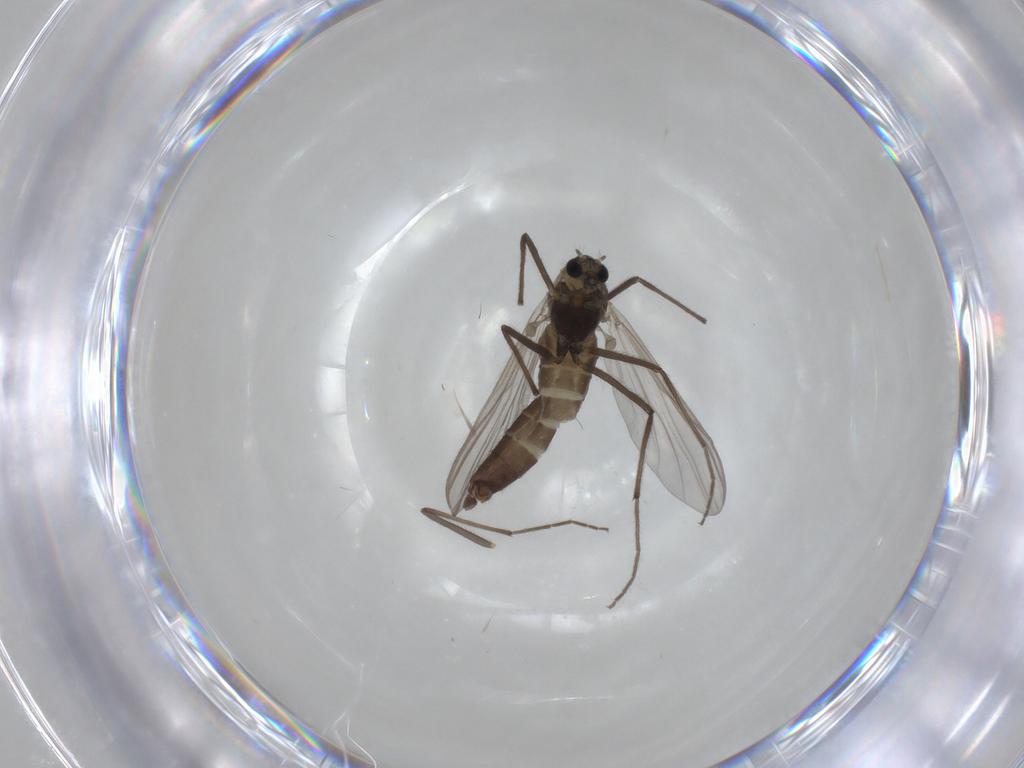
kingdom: Animalia
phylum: Arthropoda
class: Insecta
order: Diptera
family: Chironomidae
